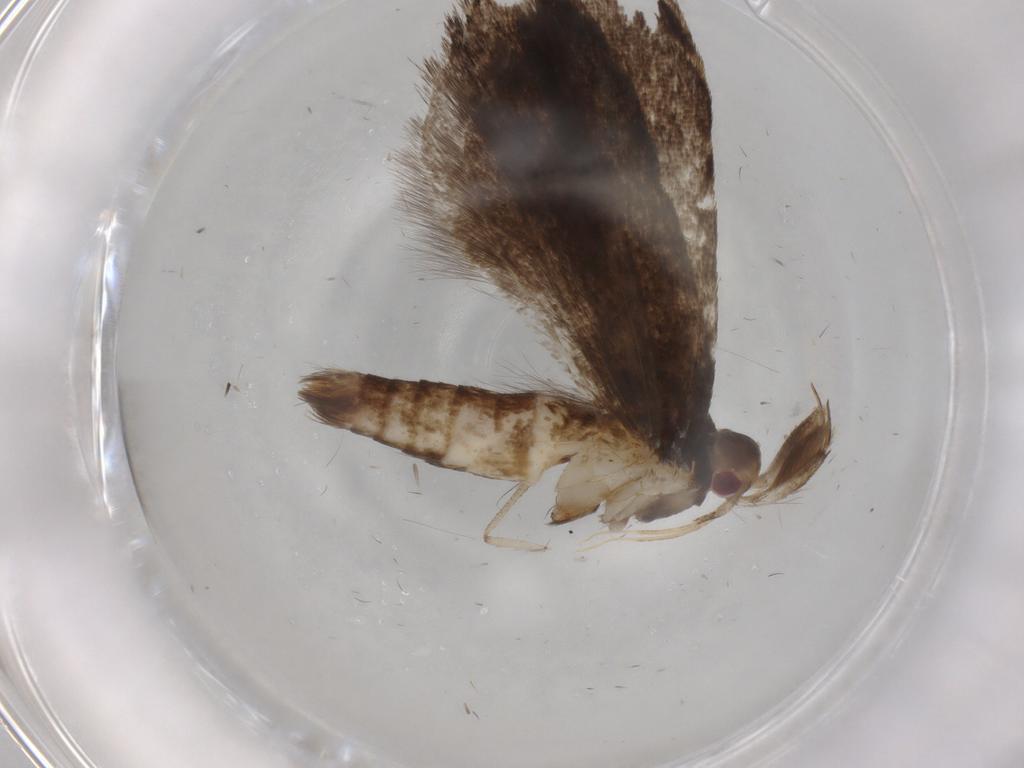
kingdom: Animalia
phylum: Arthropoda
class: Insecta
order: Lepidoptera
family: Gelechiidae
